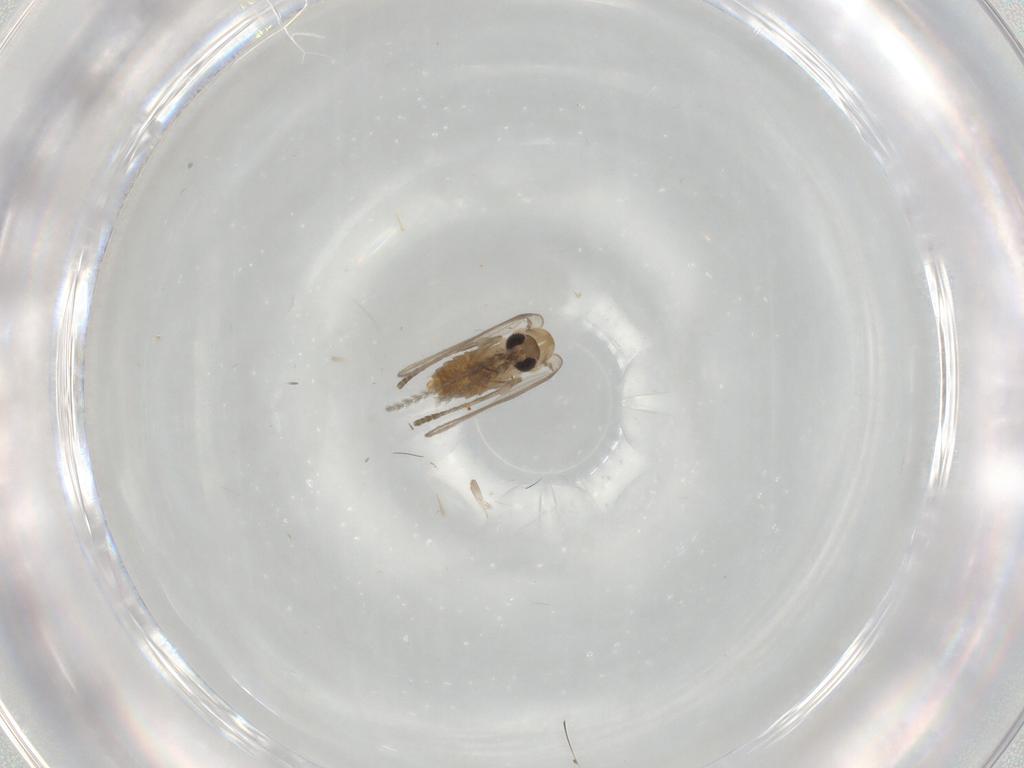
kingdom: Animalia
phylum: Arthropoda
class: Insecta
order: Diptera
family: Psychodidae
